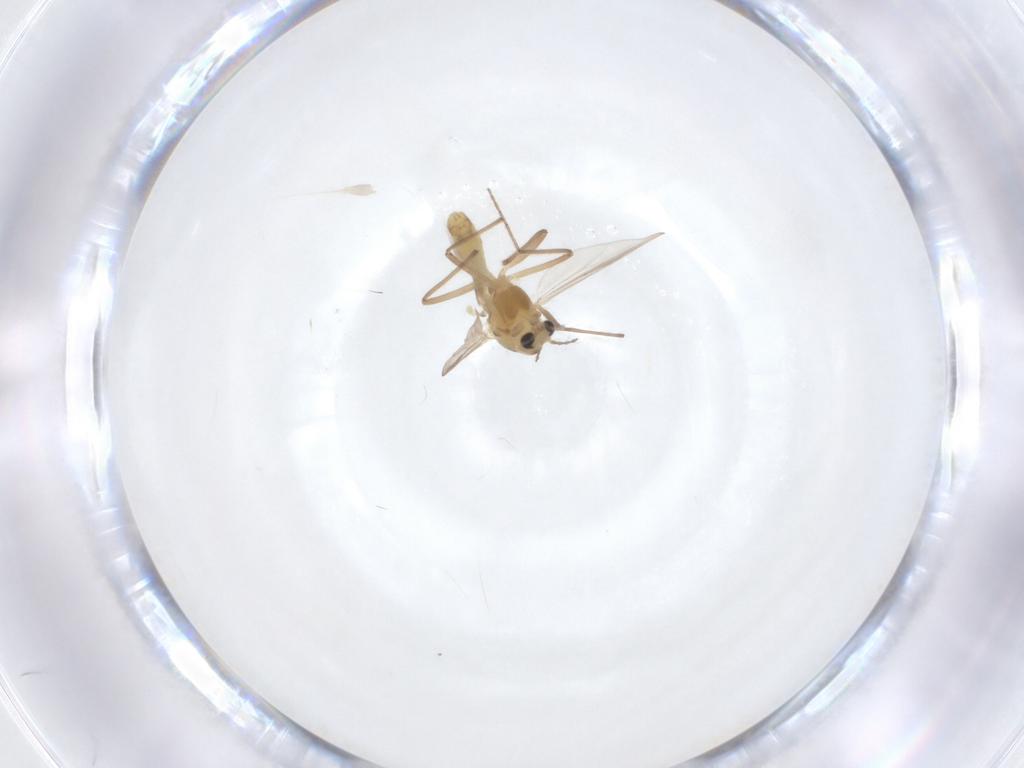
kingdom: Animalia
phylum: Arthropoda
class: Insecta
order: Diptera
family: Chironomidae
